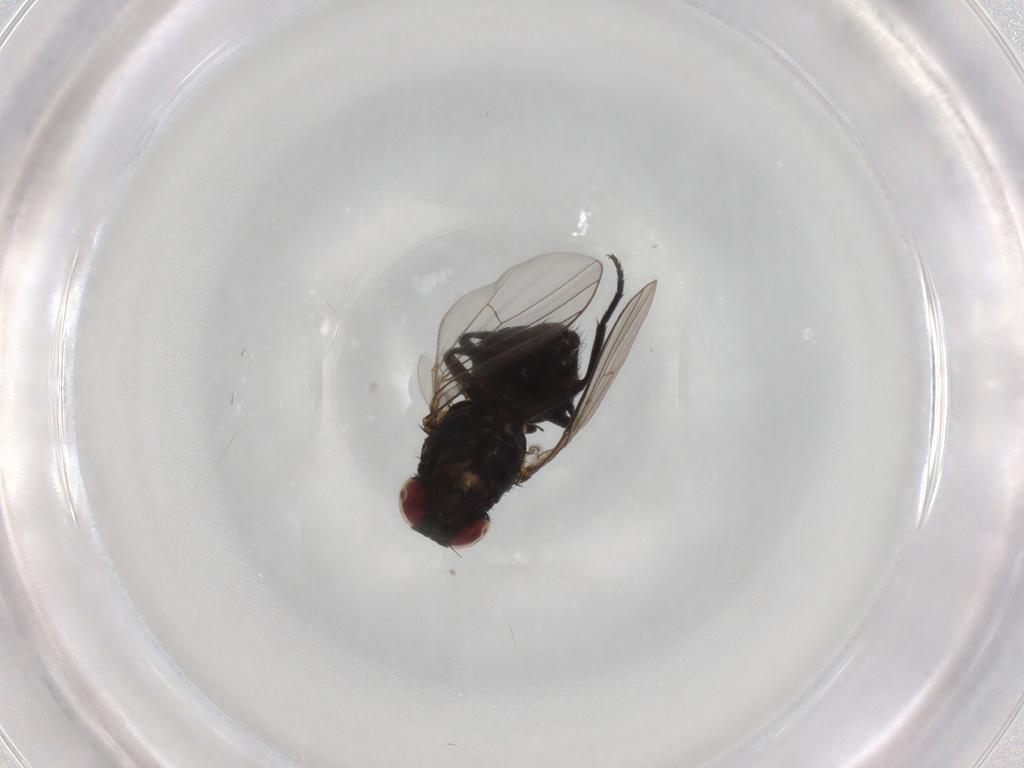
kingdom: Animalia
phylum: Arthropoda
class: Insecta
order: Diptera
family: Agromyzidae
